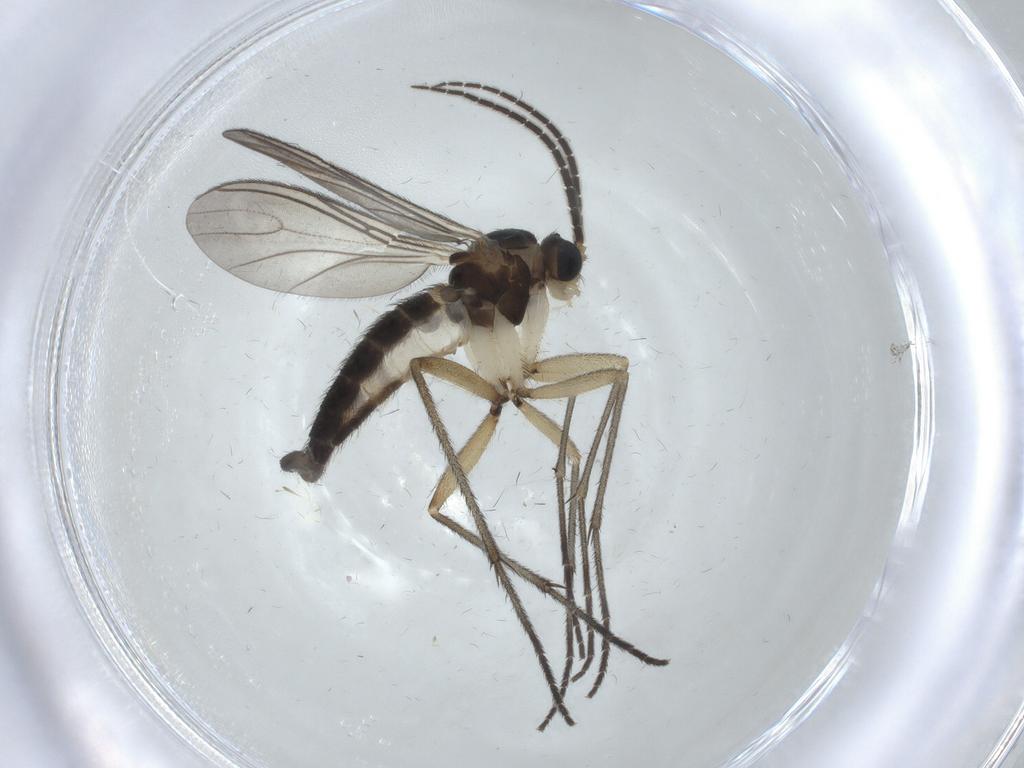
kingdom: Animalia
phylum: Arthropoda
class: Insecta
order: Diptera
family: Sciaridae
